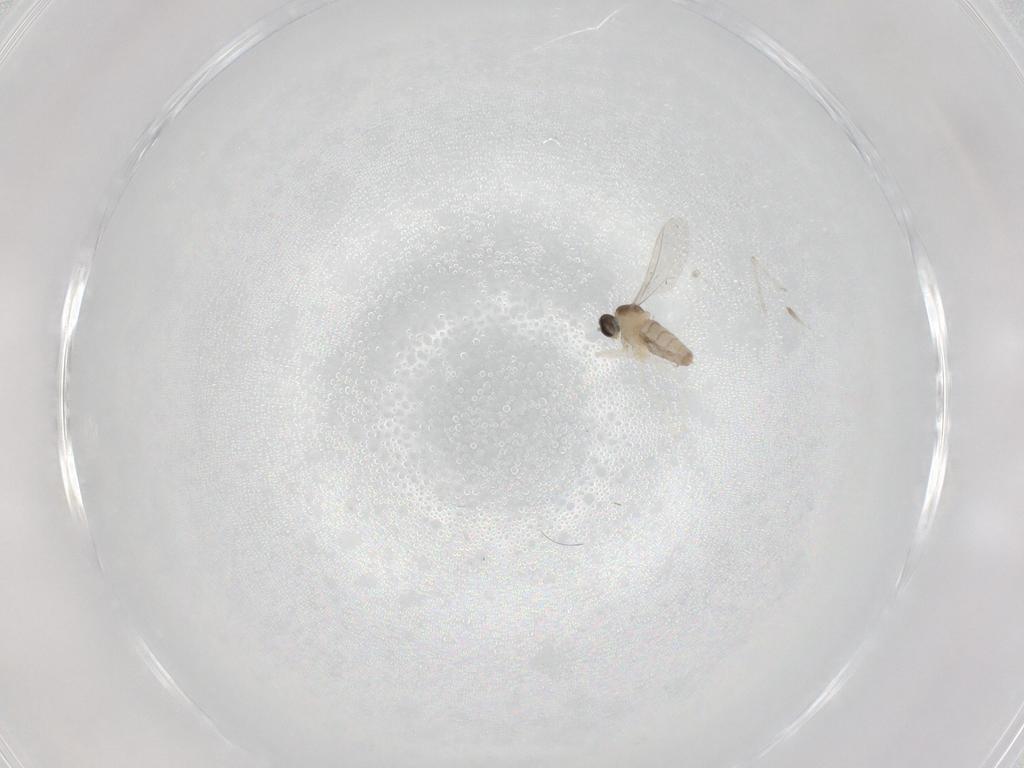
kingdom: Animalia
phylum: Arthropoda
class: Insecta
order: Diptera
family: Cecidomyiidae
